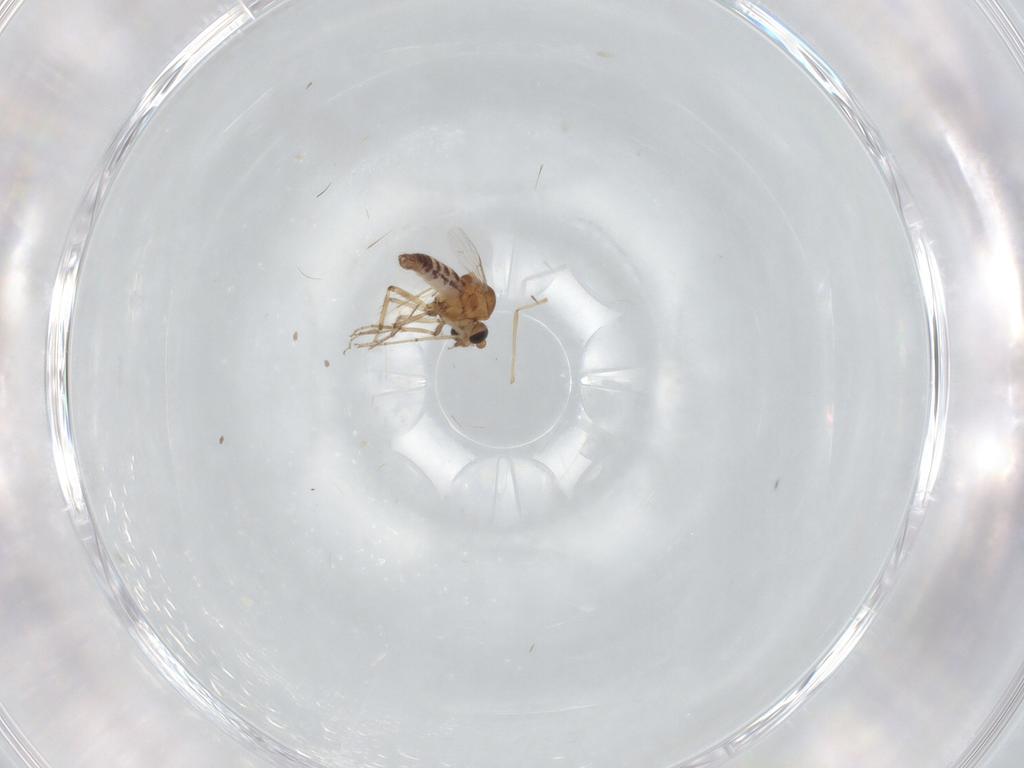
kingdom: Animalia
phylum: Arthropoda
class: Insecta
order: Diptera
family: Ceratopogonidae
